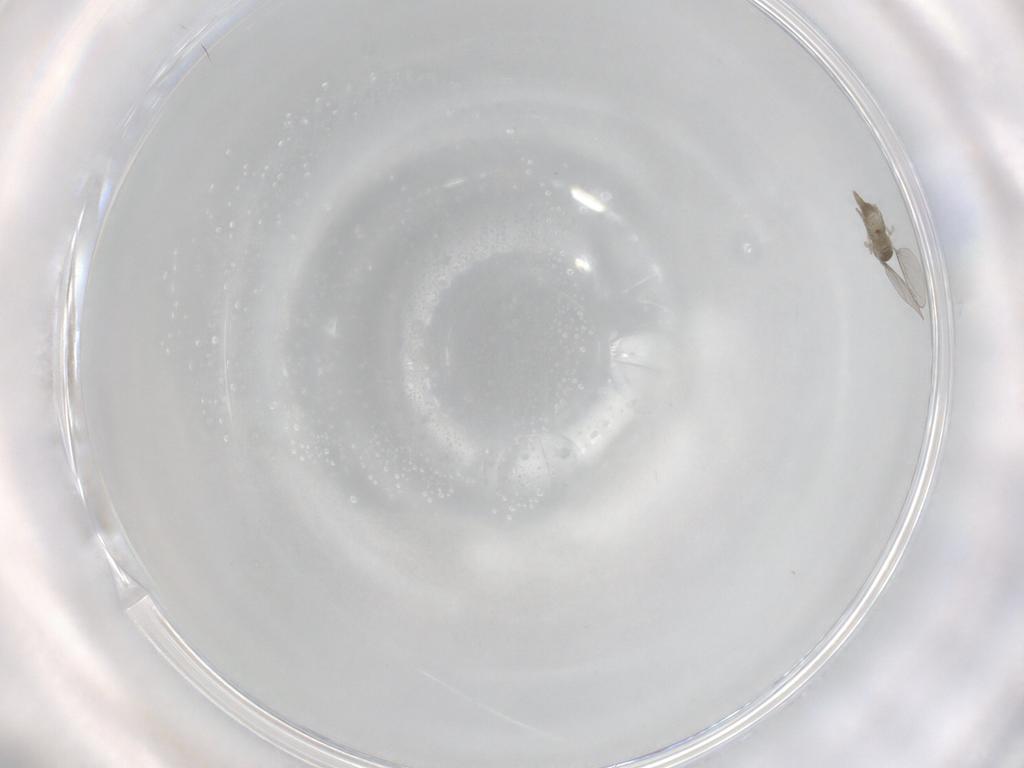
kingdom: Animalia
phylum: Arthropoda
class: Insecta
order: Diptera
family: Cecidomyiidae
